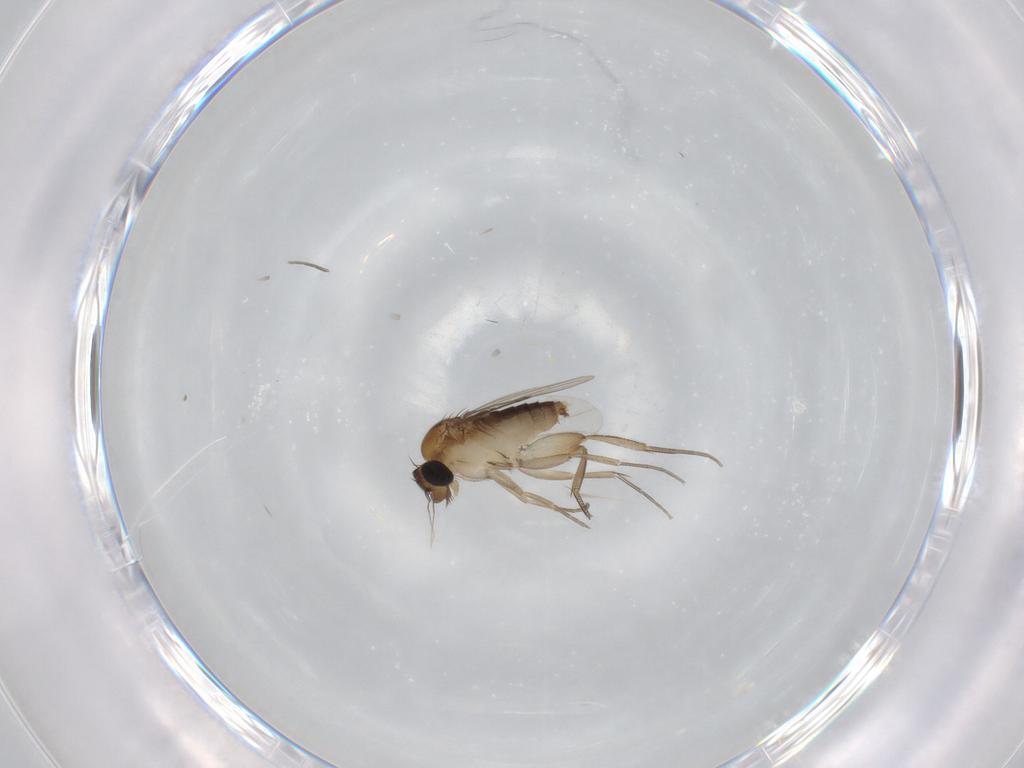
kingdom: Animalia
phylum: Arthropoda
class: Insecta
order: Diptera
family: Phoridae
